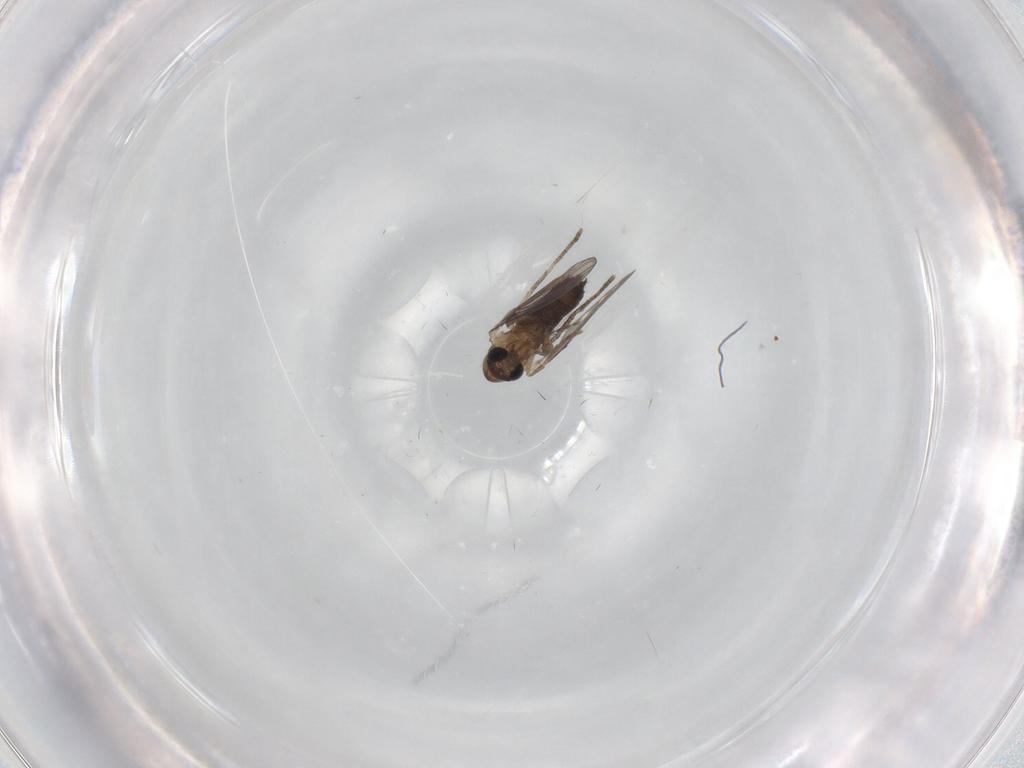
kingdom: Animalia
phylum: Arthropoda
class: Insecta
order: Diptera
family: Psychodidae
